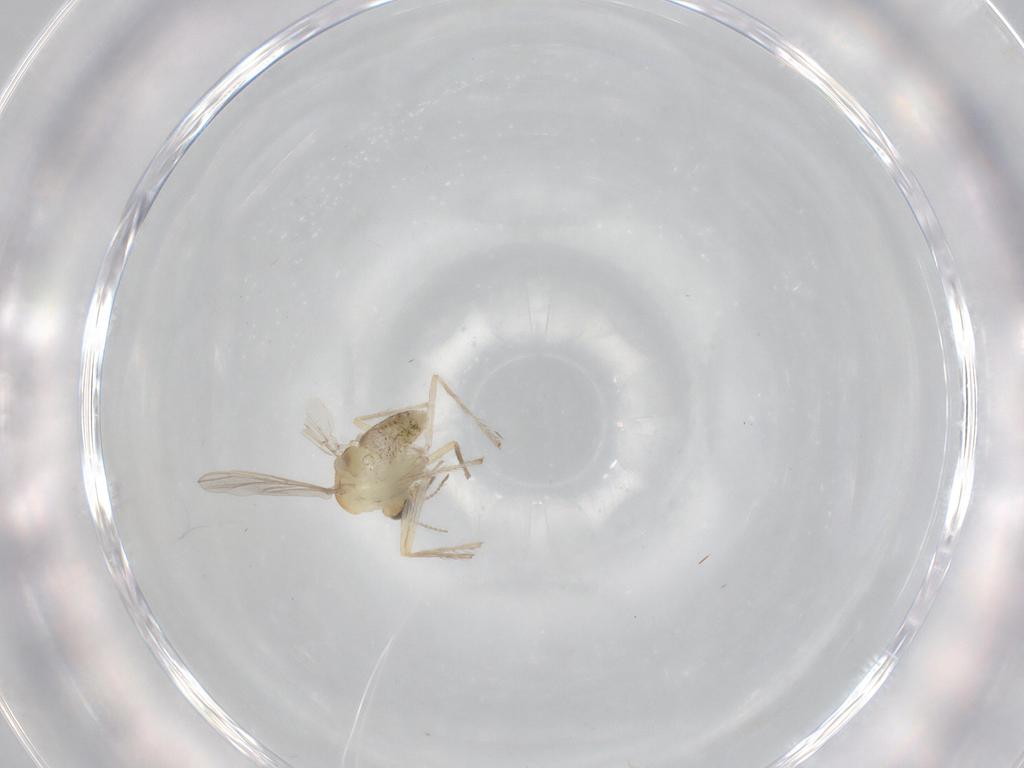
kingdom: Animalia
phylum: Arthropoda
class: Insecta
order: Diptera
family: Chironomidae
